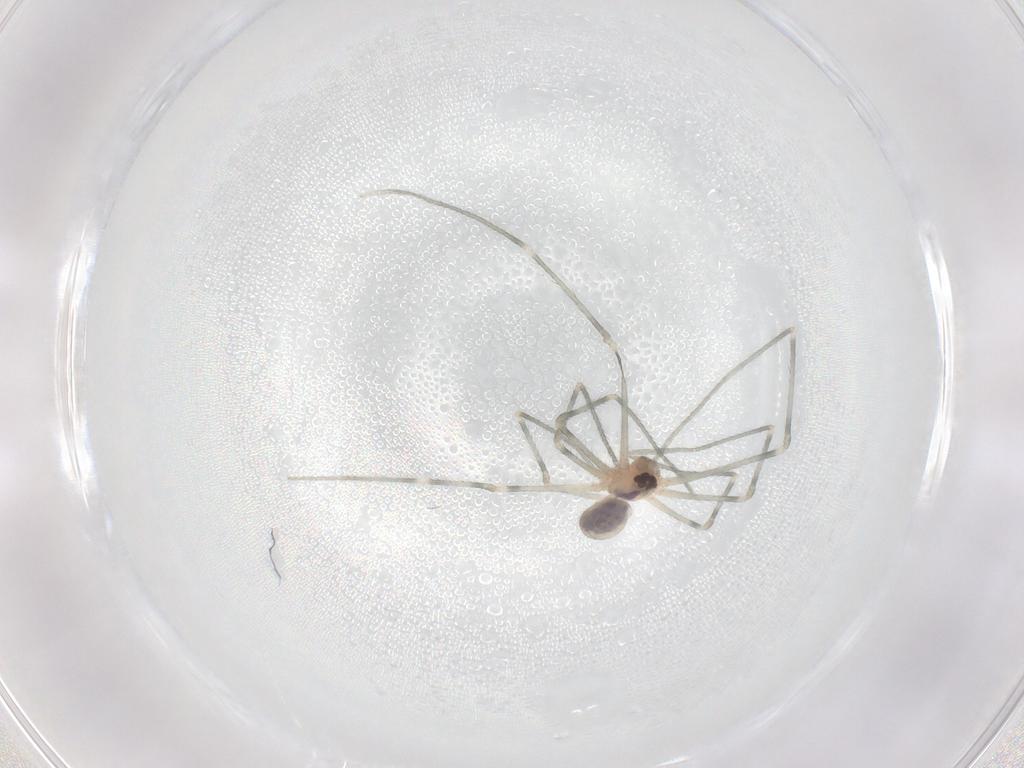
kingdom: Animalia
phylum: Arthropoda
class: Arachnida
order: Araneae
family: Pholcidae
